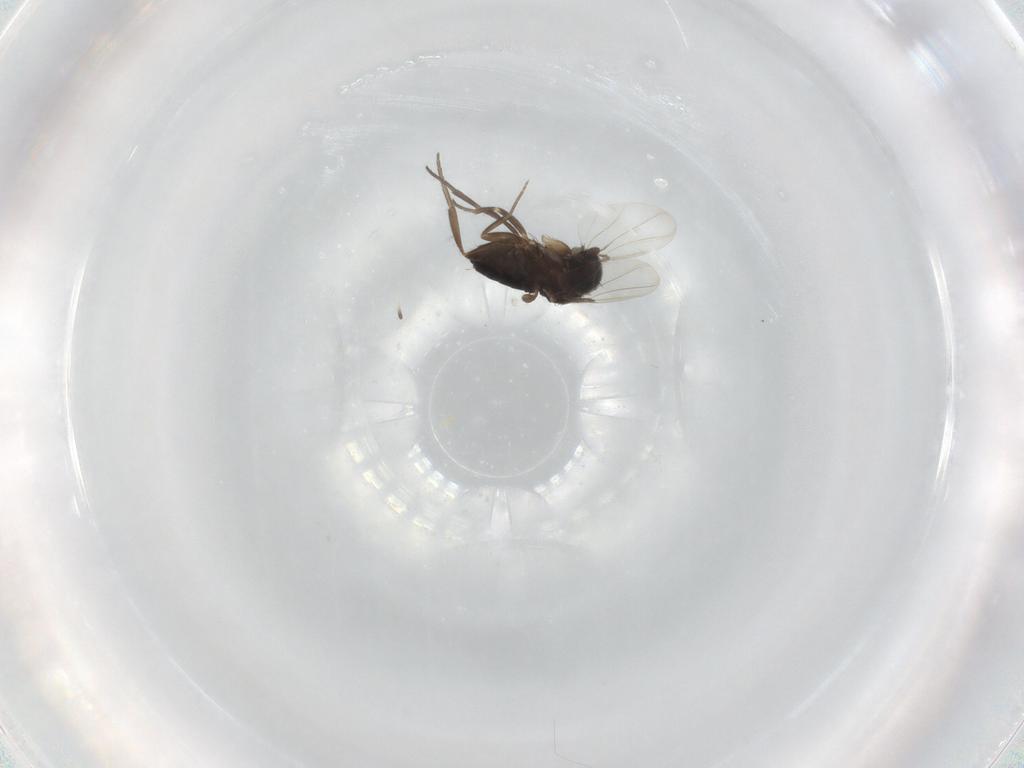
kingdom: Animalia
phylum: Arthropoda
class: Insecta
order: Diptera
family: Phoridae
